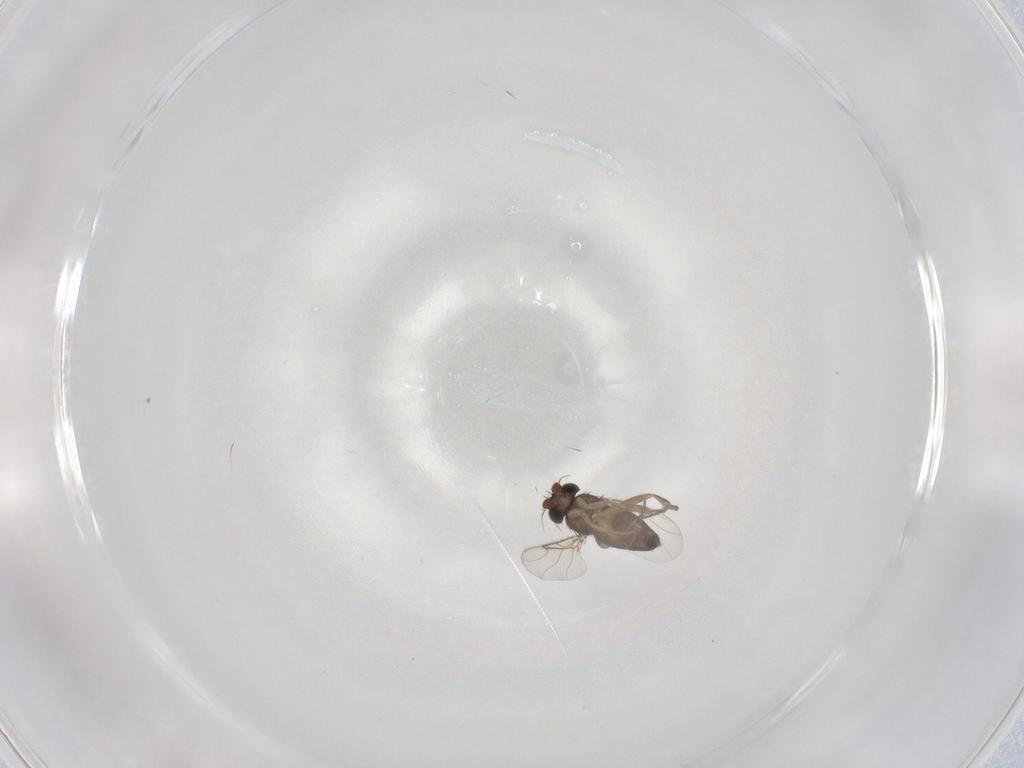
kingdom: Animalia
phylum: Arthropoda
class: Insecta
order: Diptera
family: Phoridae
